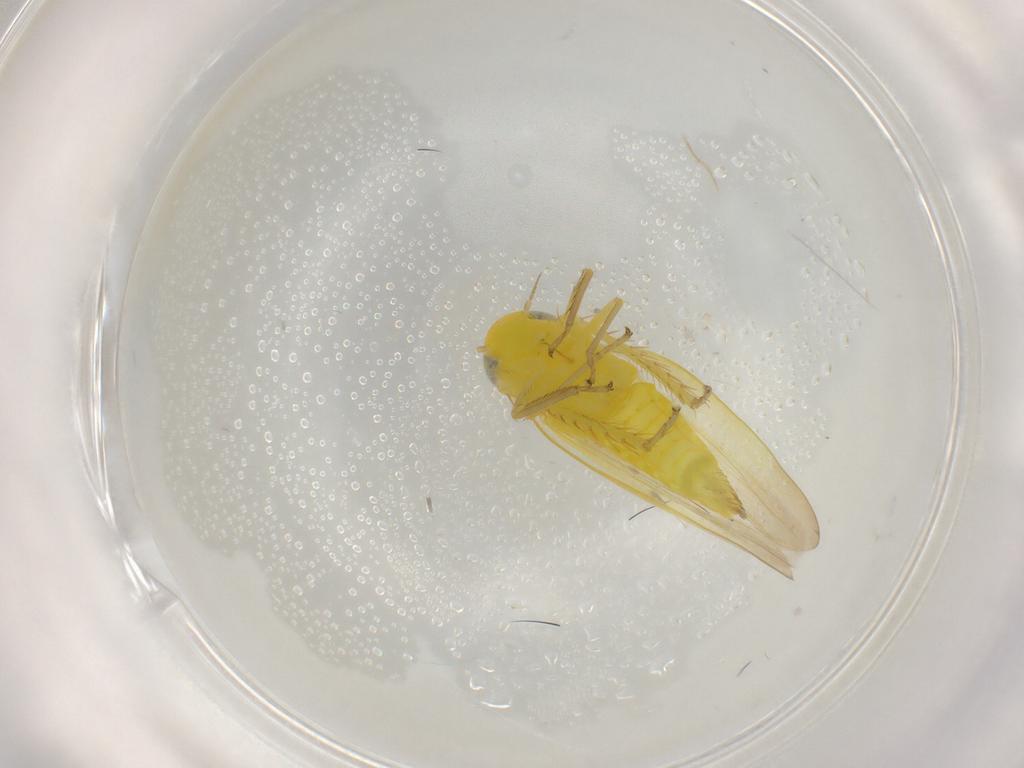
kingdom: Animalia
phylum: Arthropoda
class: Insecta
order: Hemiptera
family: Cicadellidae
